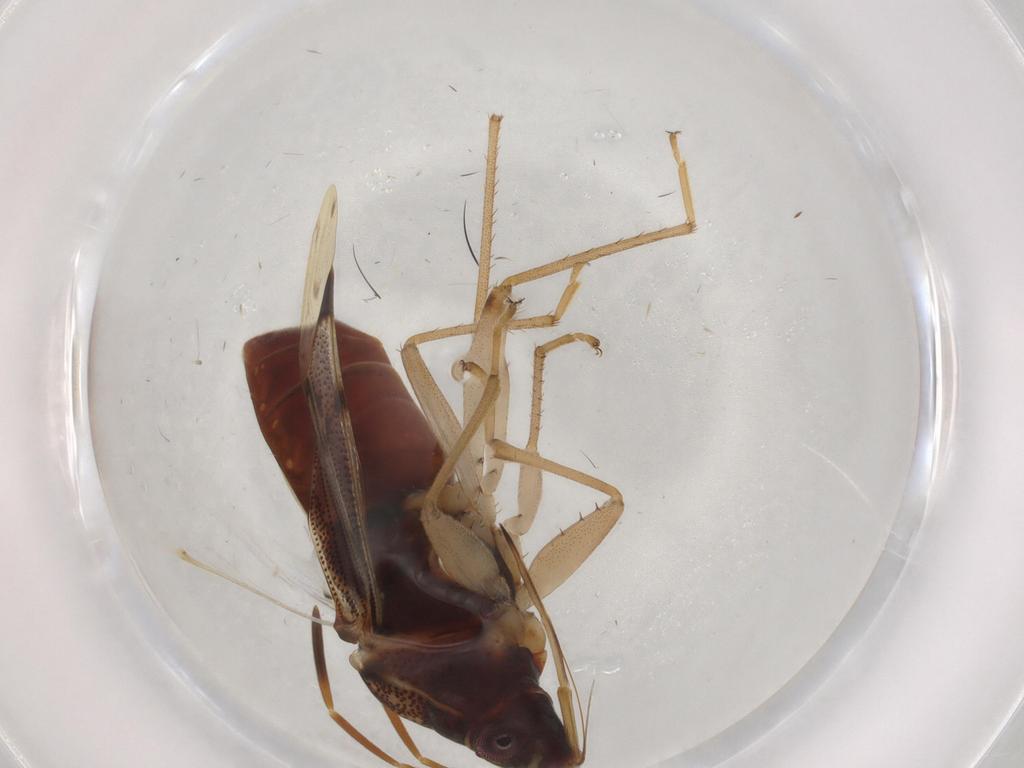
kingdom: Animalia
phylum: Arthropoda
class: Insecta
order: Hemiptera
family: Rhyparochromidae
